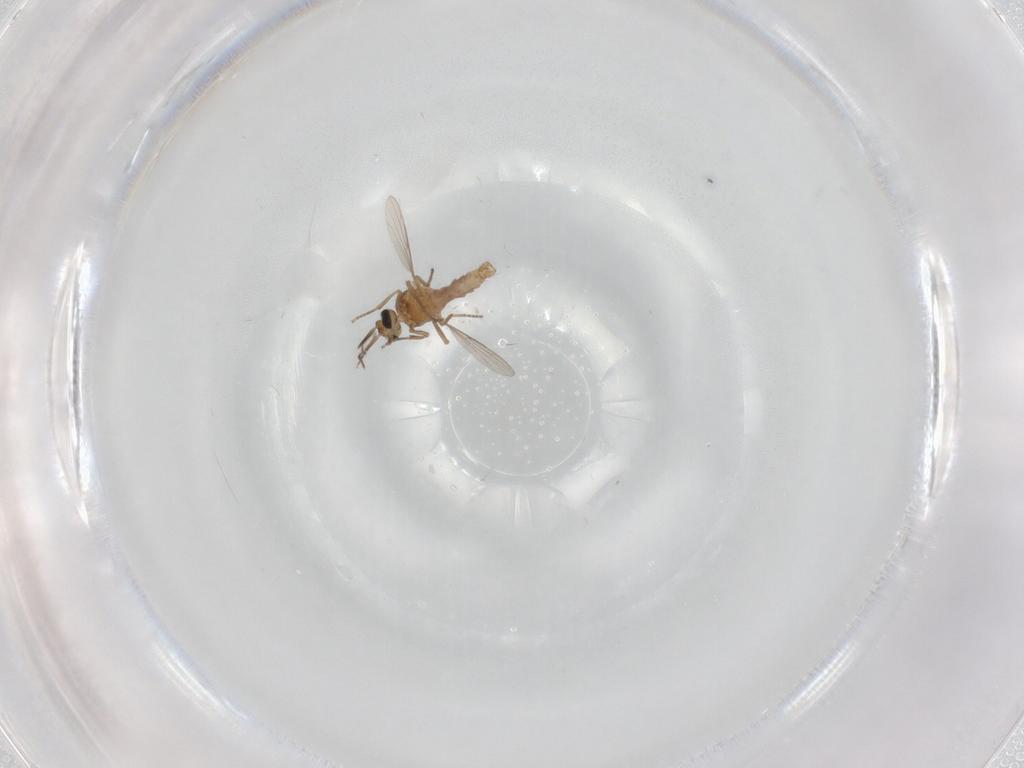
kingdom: Animalia
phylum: Arthropoda
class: Insecta
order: Diptera
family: Ceratopogonidae
